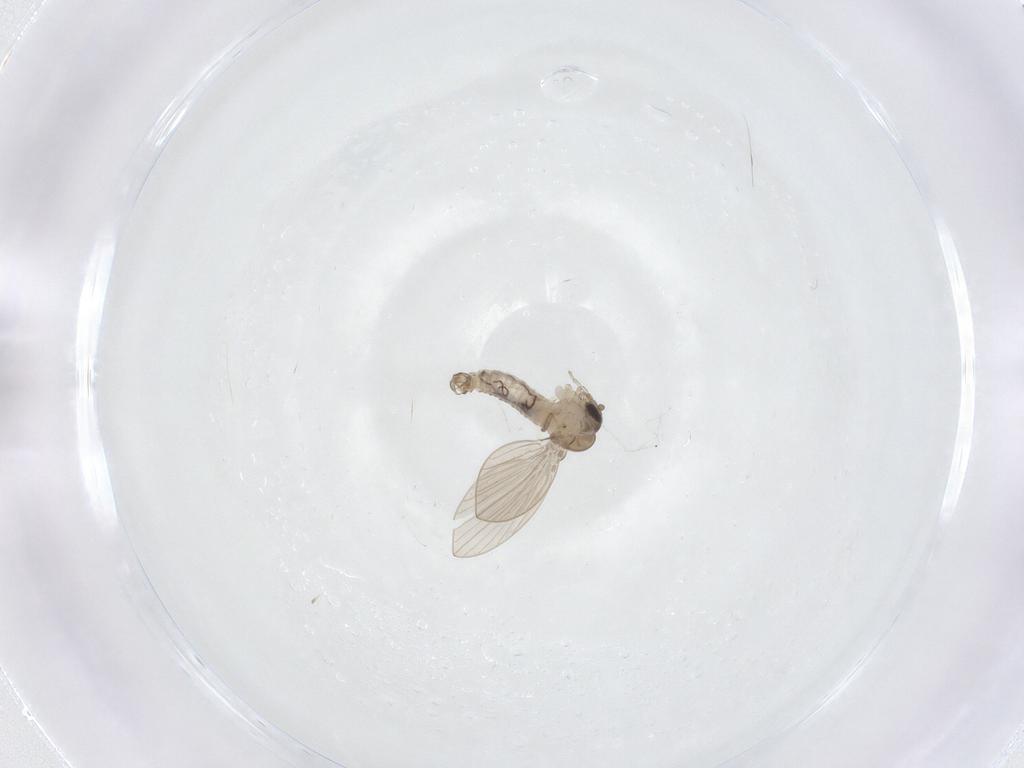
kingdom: Animalia
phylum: Arthropoda
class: Insecta
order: Diptera
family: Psychodidae
